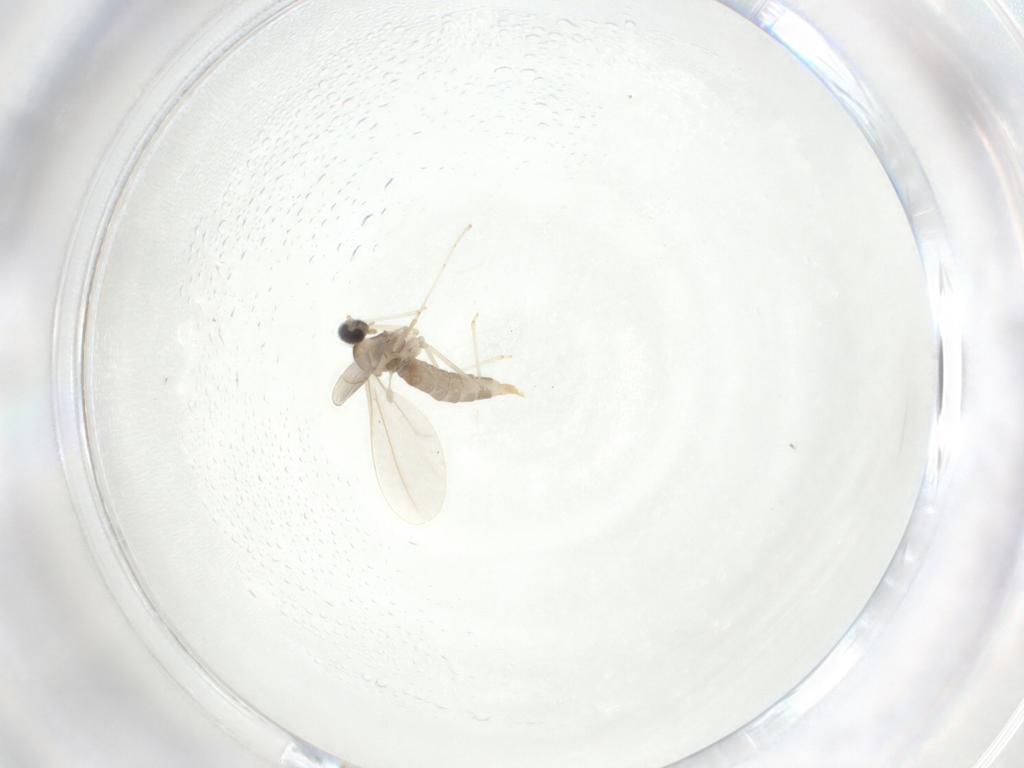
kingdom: Animalia
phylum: Arthropoda
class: Insecta
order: Diptera
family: Cecidomyiidae
